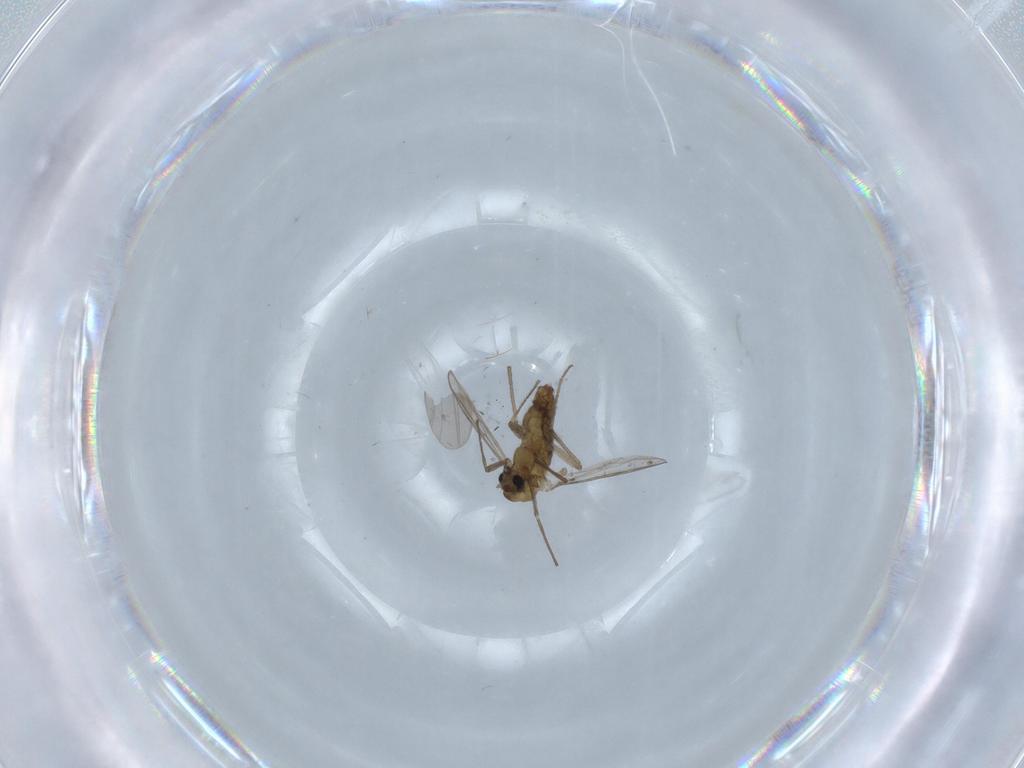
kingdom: Animalia
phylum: Arthropoda
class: Insecta
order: Diptera
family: Chironomidae
